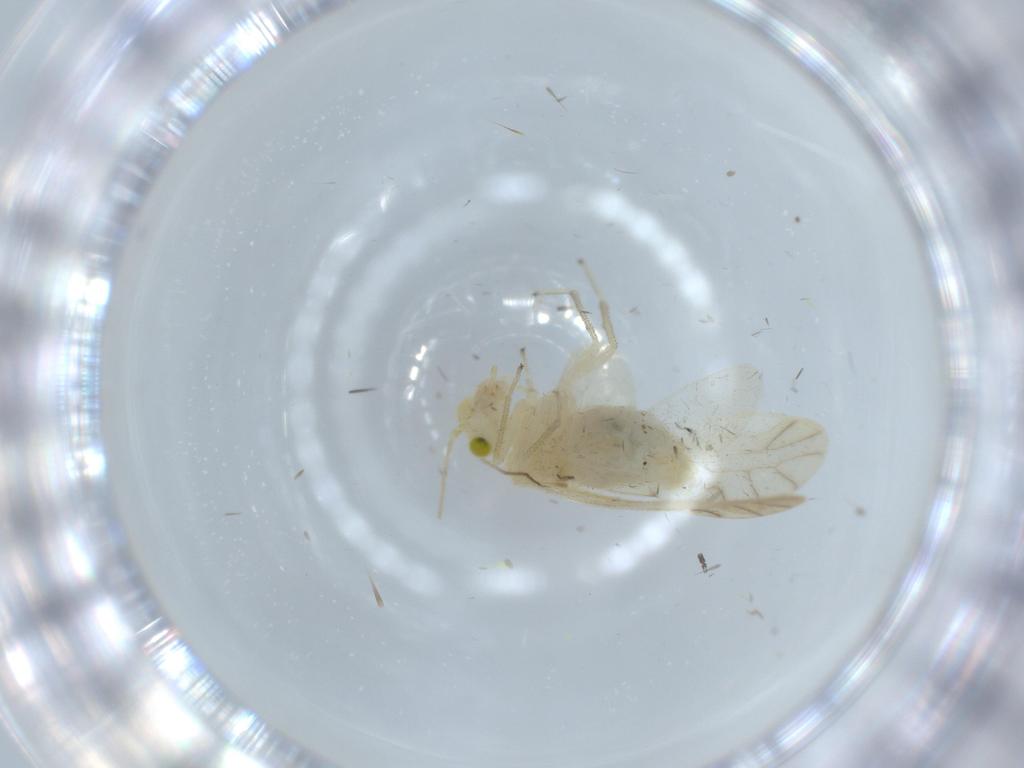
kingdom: Animalia
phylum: Arthropoda
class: Insecta
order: Psocodea
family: Caeciliusidae
